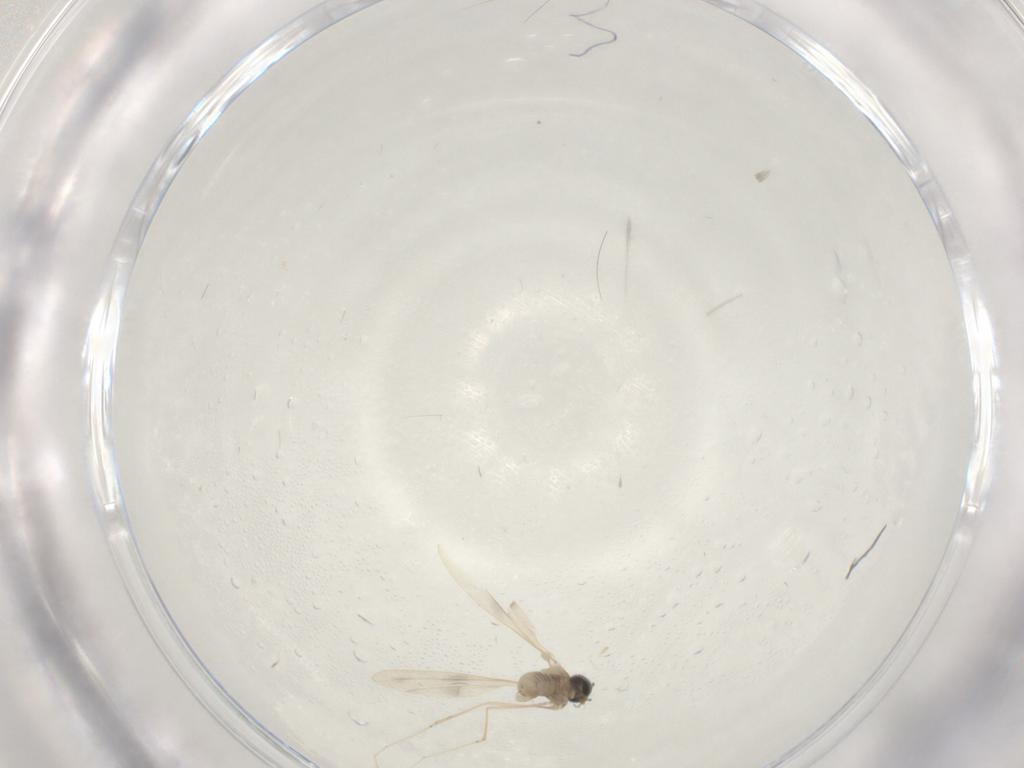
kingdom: Animalia
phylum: Arthropoda
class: Insecta
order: Diptera
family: Cecidomyiidae
